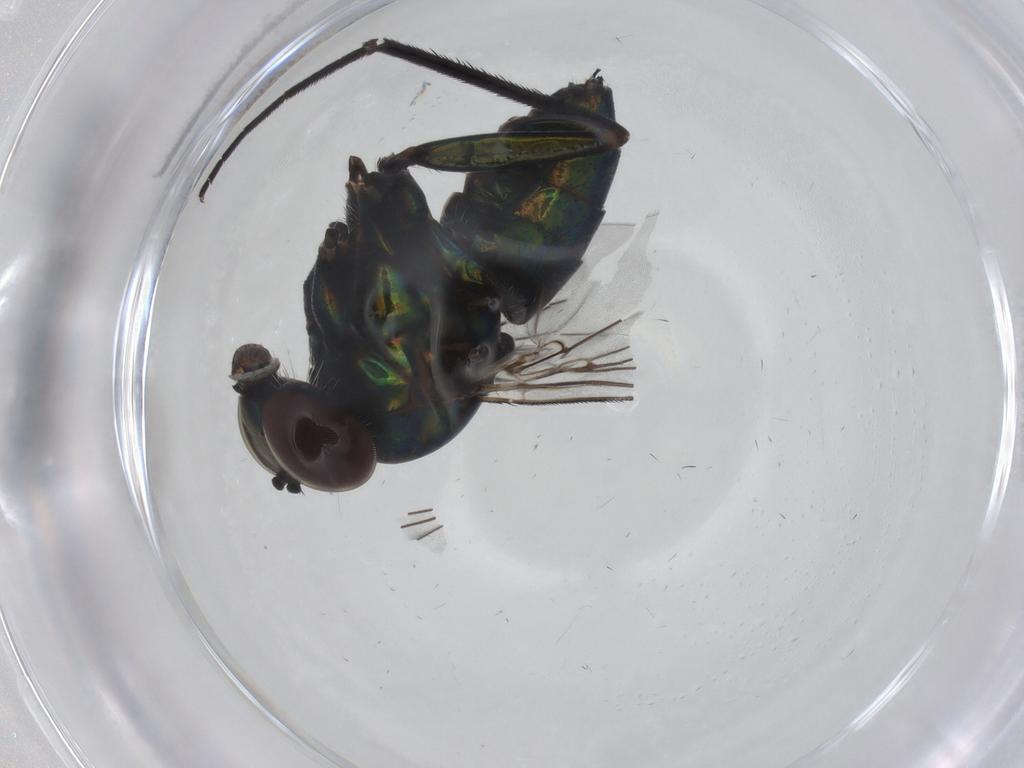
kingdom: Animalia
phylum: Arthropoda
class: Insecta
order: Diptera
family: Dolichopodidae
